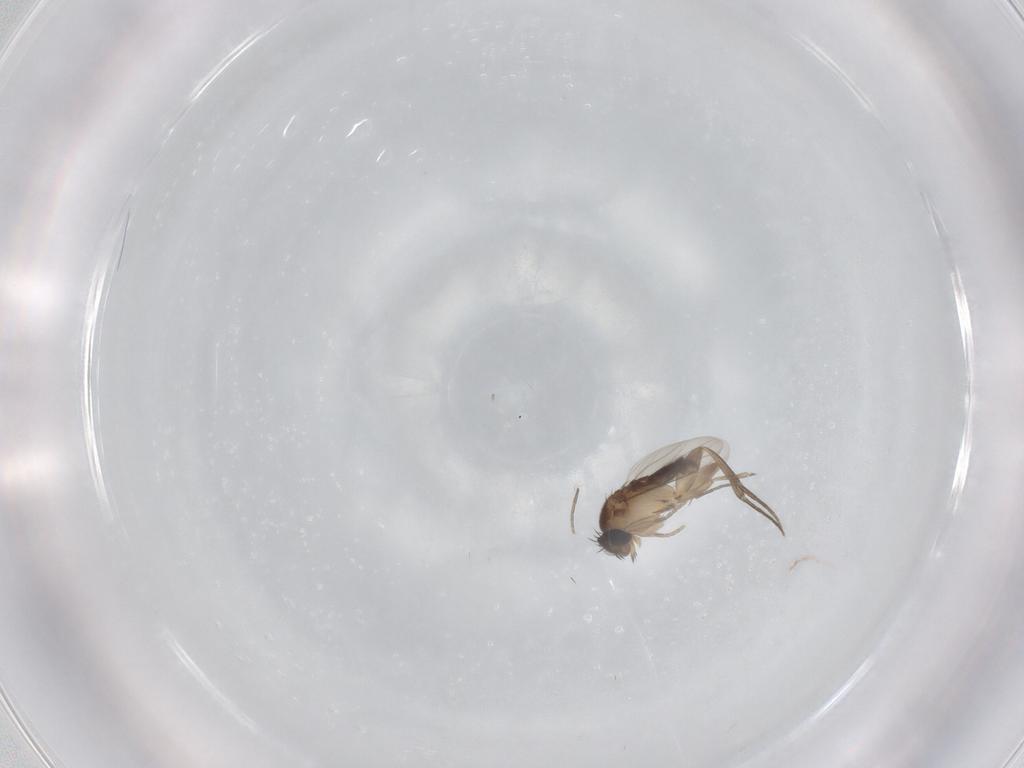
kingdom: Animalia
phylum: Arthropoda
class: Insecta
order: Diptera
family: Phoridae
